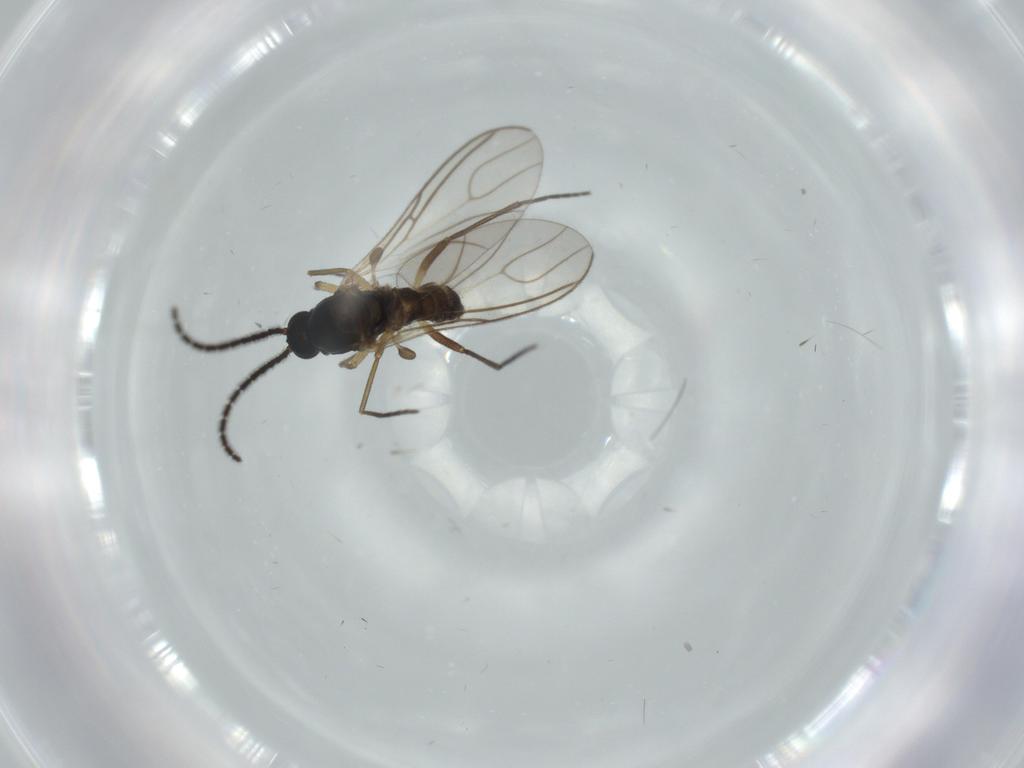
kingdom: Animalia
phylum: Arthropoda
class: Insecta
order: Diptera
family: Sciaridae
